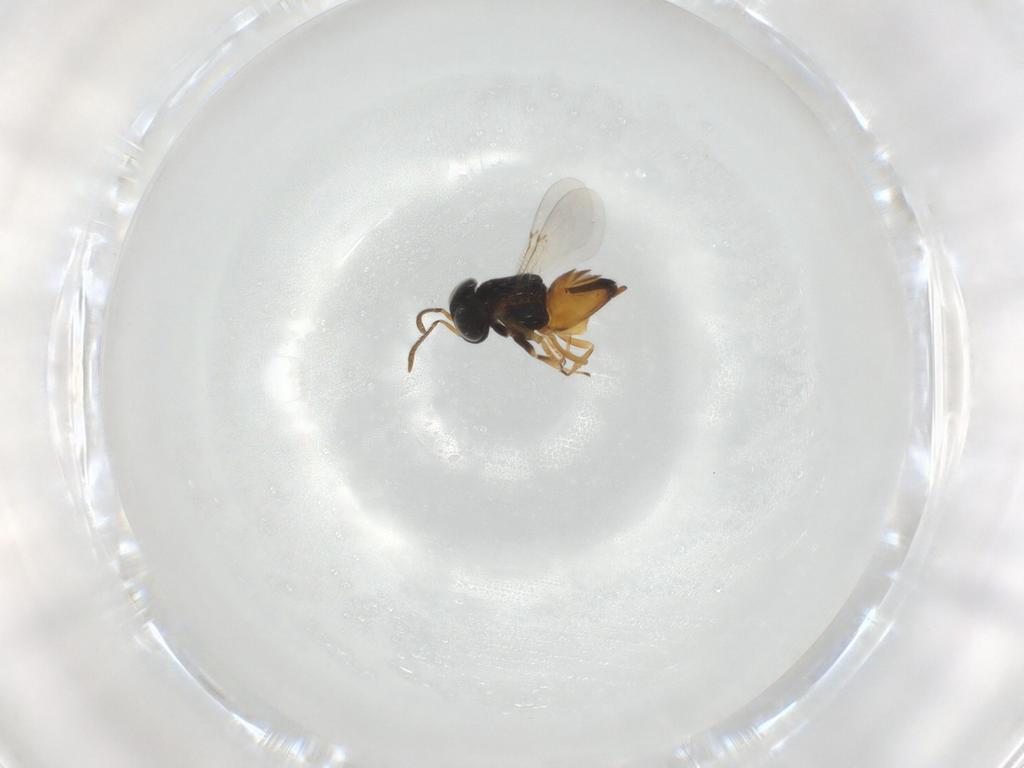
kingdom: Animalia
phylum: Arthropoda
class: Insecta
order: Hymenoptera
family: Encyrtidae
